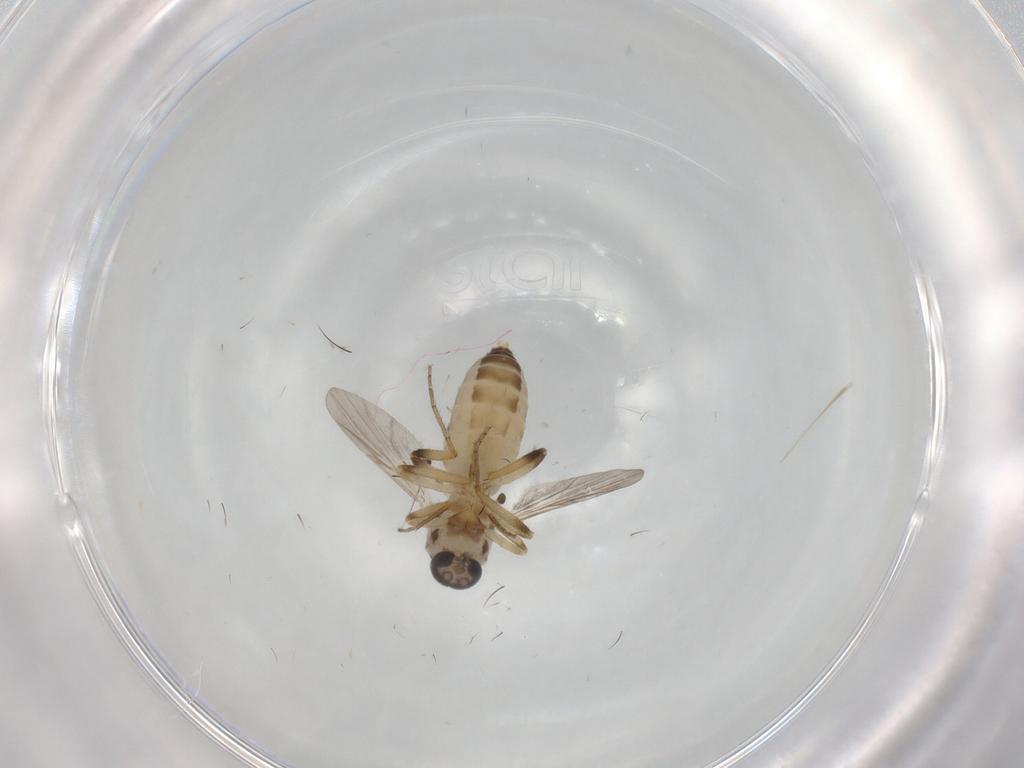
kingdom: Animalia
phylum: Arthropoda
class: Insecta
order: Diptera
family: Ceratopogonidae
